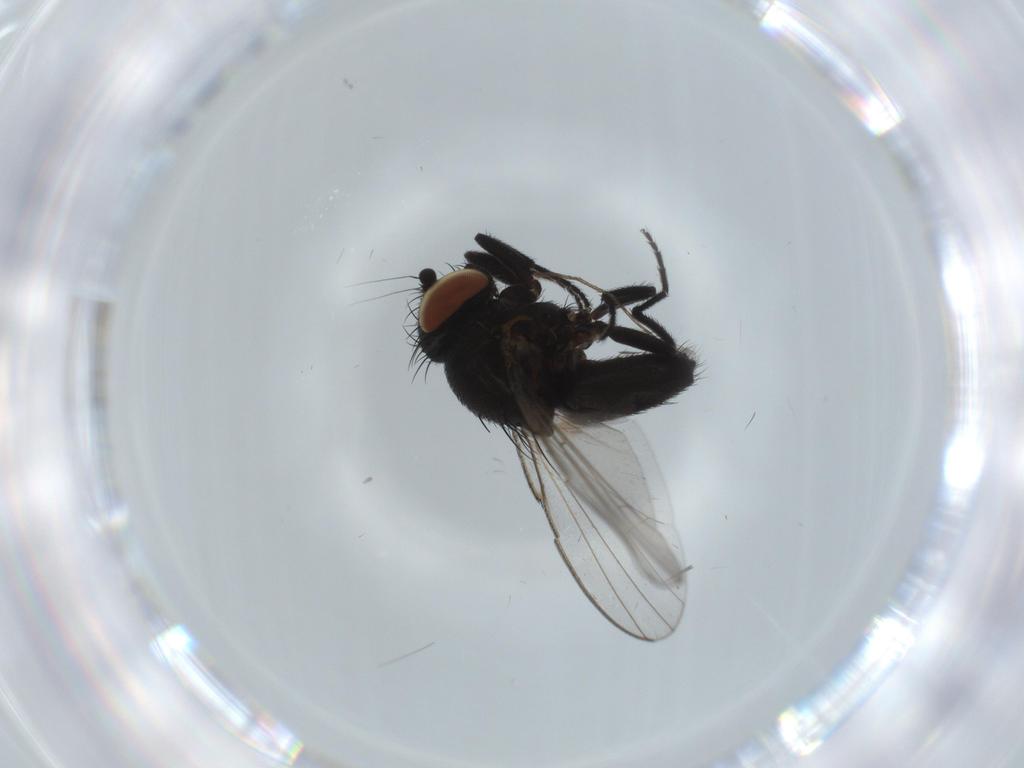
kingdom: Animalia
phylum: Arthropoda
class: Insecta
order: Diptera
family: Milichiidae
